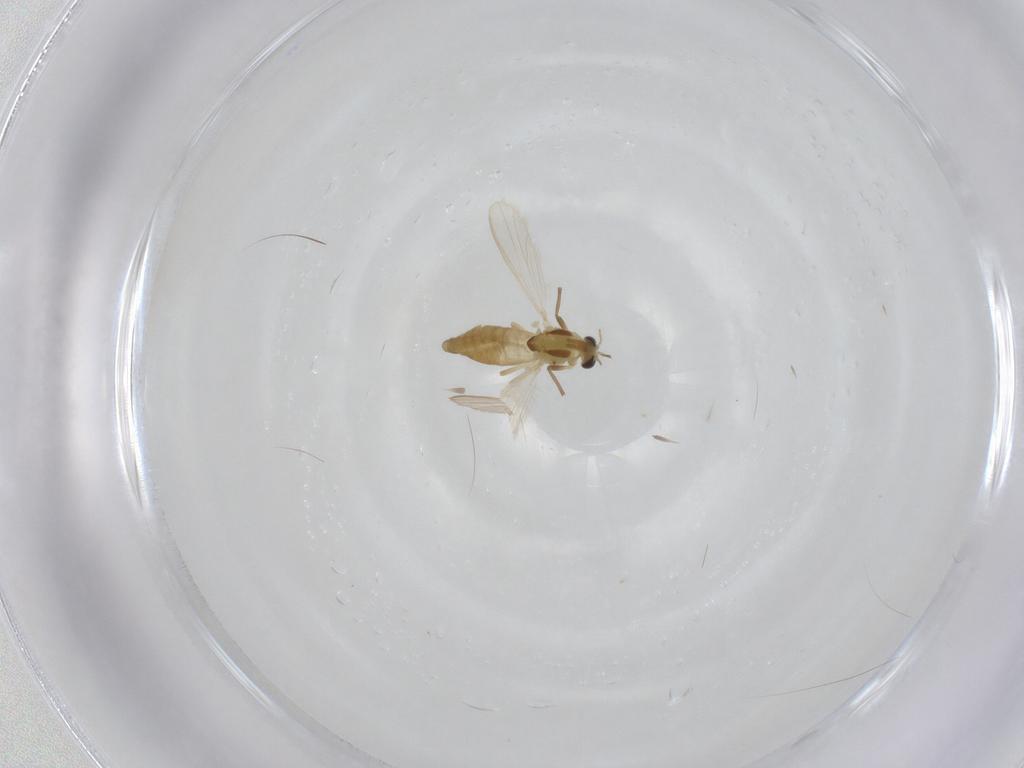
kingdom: Animalia
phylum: Arthropoda
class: Insecta
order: Diptera
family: Chironomidae
